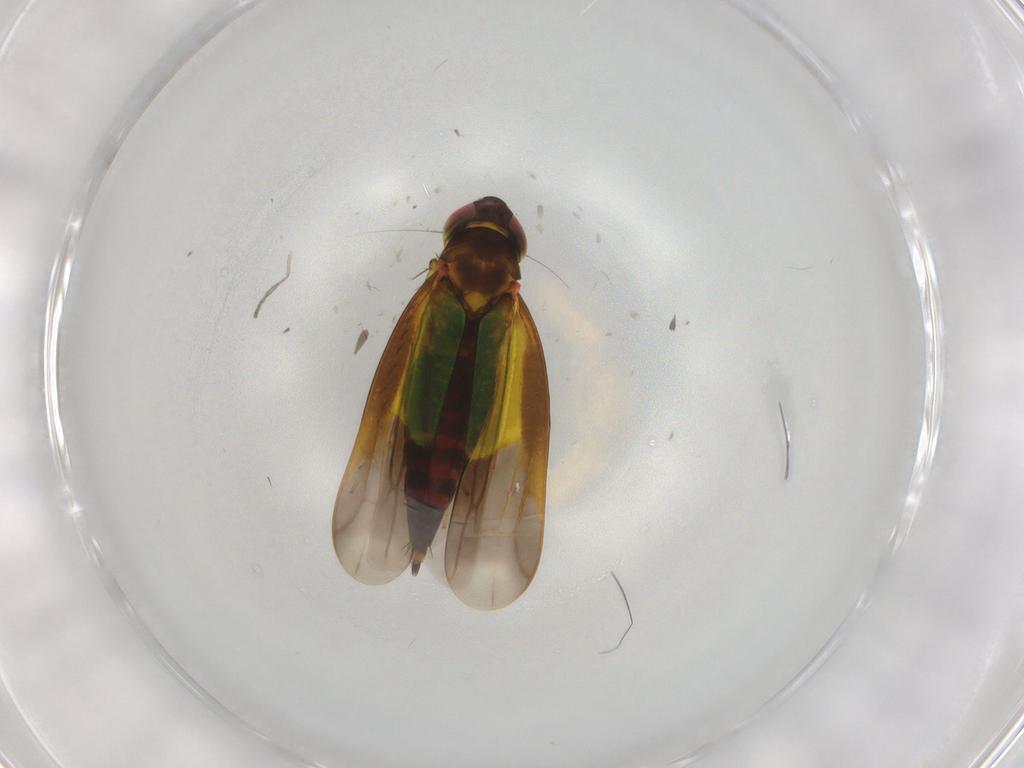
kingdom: Animalia
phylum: Arthropoda
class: Insecta
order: Hemiptera
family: Cicadellidae
